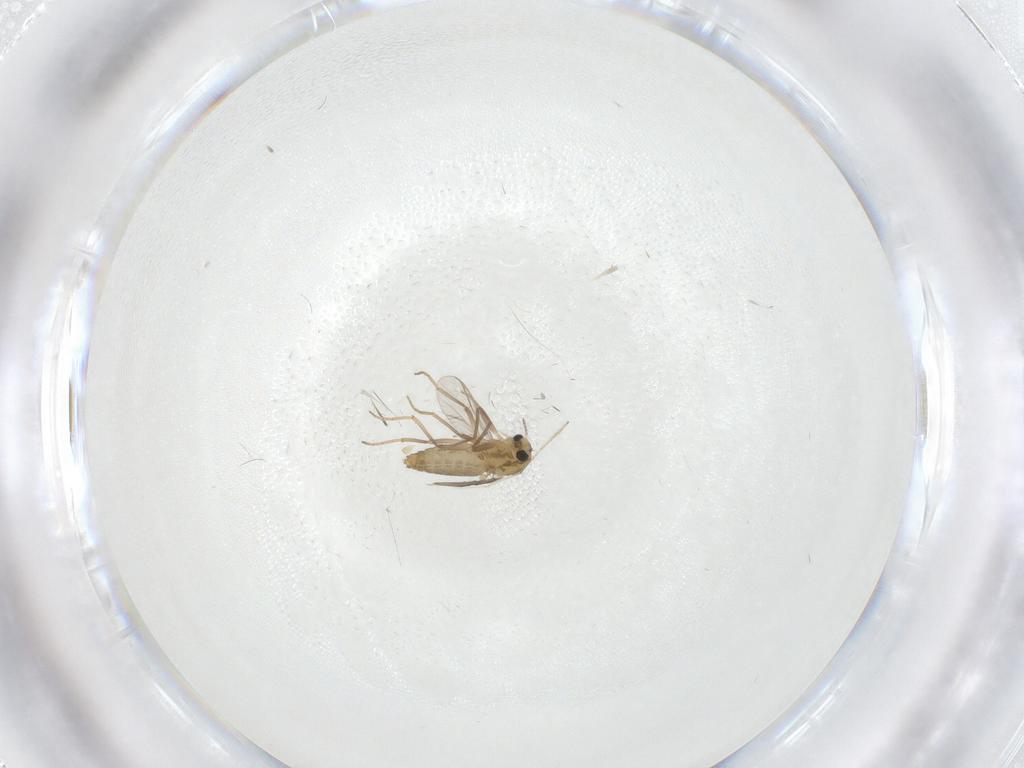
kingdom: Animalia
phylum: Arthropoda
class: Insecta
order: Diptera
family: Chironomidae
